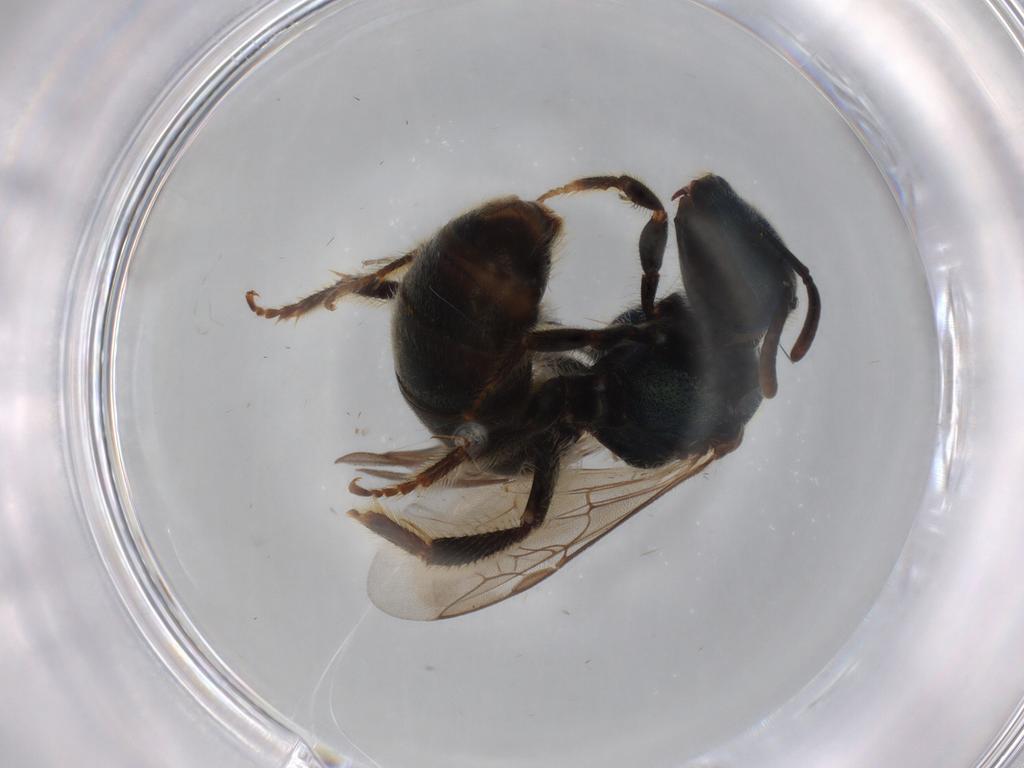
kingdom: Animalia
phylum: Arthropoda
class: Insecta
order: Hymenoptera
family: Halictidae
